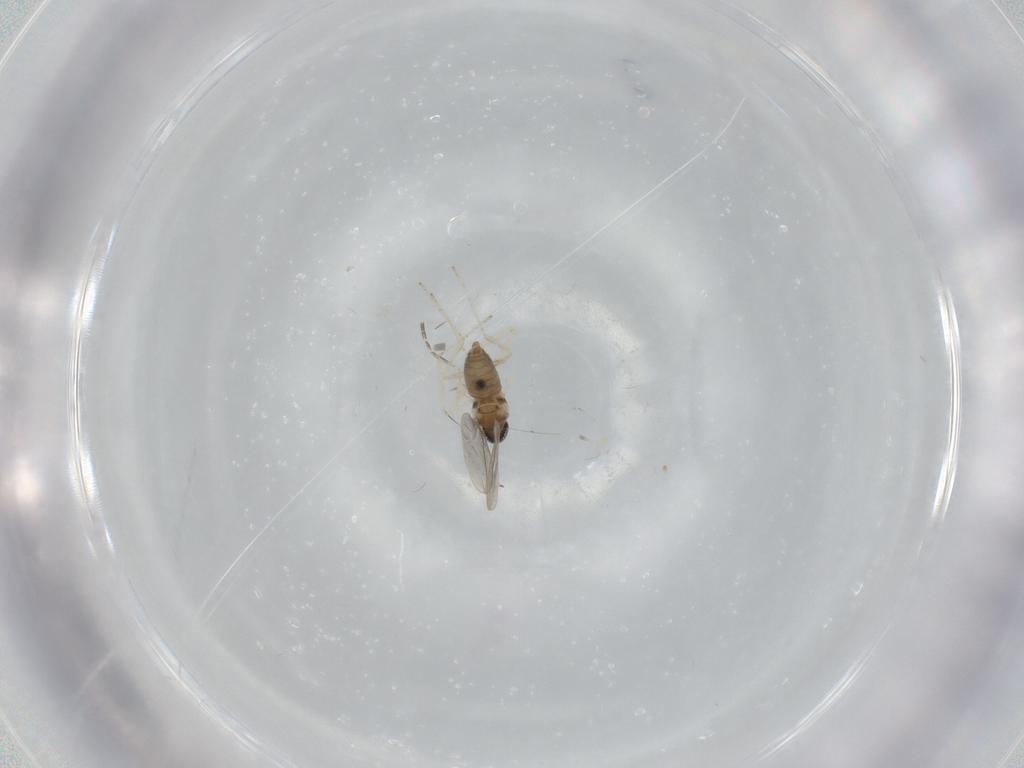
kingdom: Animalia
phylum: Arthropoda
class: Insecta
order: Diptera
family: Cecidomyiidae
